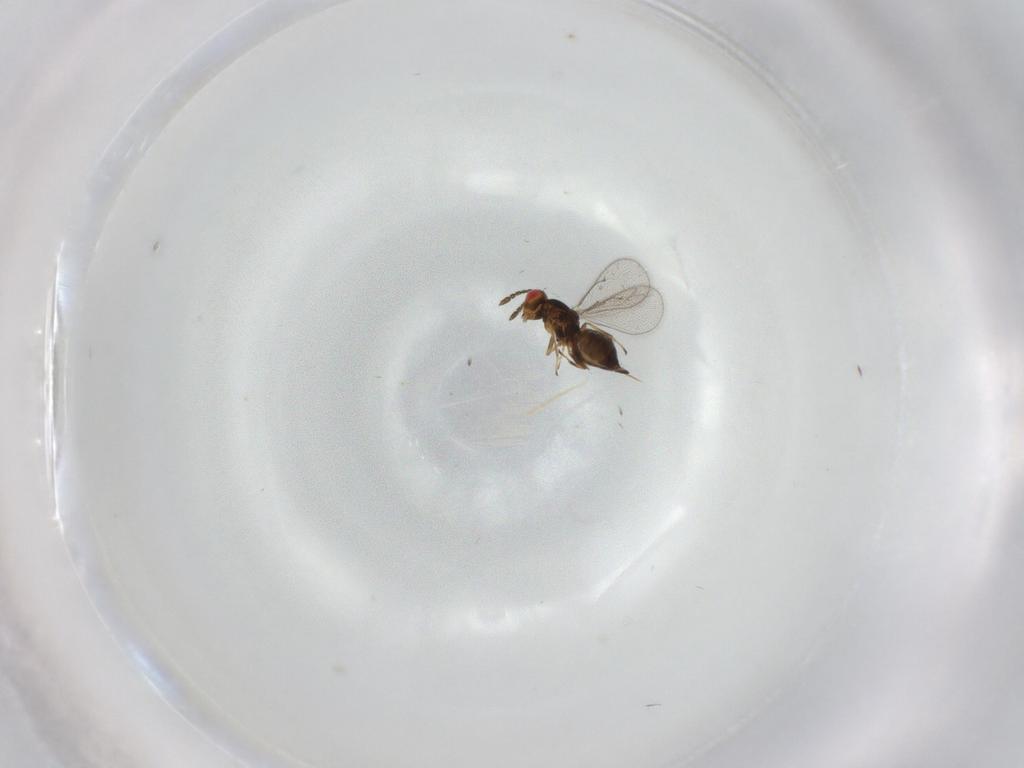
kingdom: Animalia
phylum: Arthropoda
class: Insecta
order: Hymenoptera
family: Eulophidae
